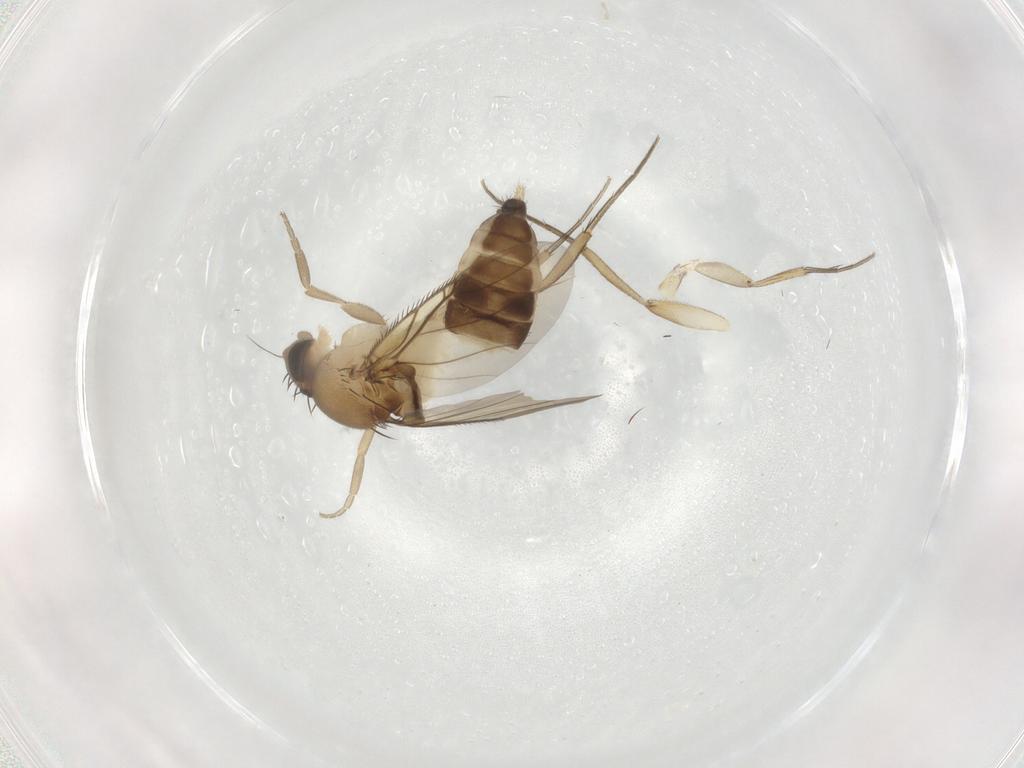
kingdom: Animalia
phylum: Arthropoda
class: Insecta
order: Diptera
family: Phoridae
